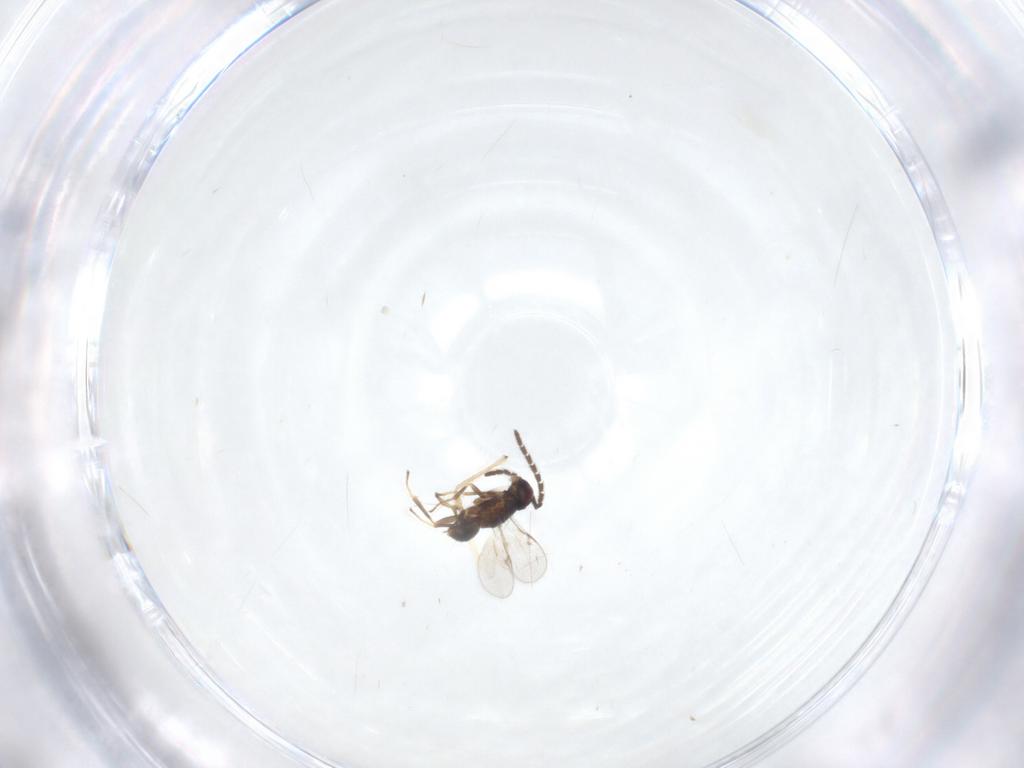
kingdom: Animalia
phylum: Arthropoda
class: Insecta
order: Hymenoptera
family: Encyrtidae
